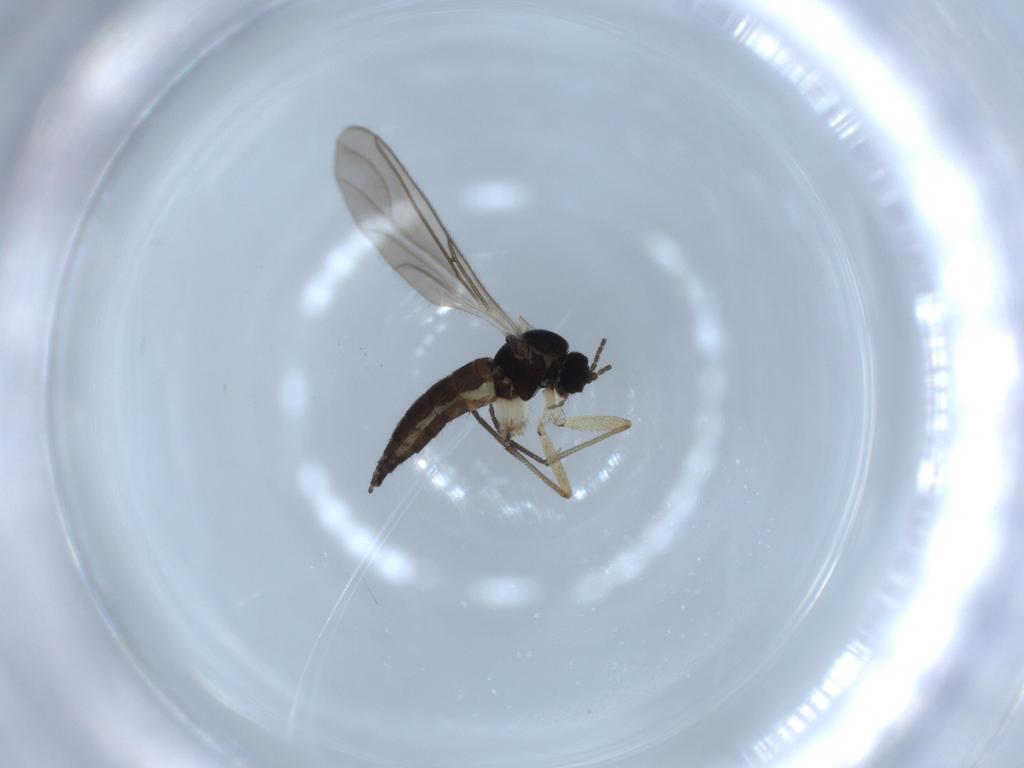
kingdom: Animalia
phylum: Arthropoda
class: Insecta
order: Diptera
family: Sciaridae
